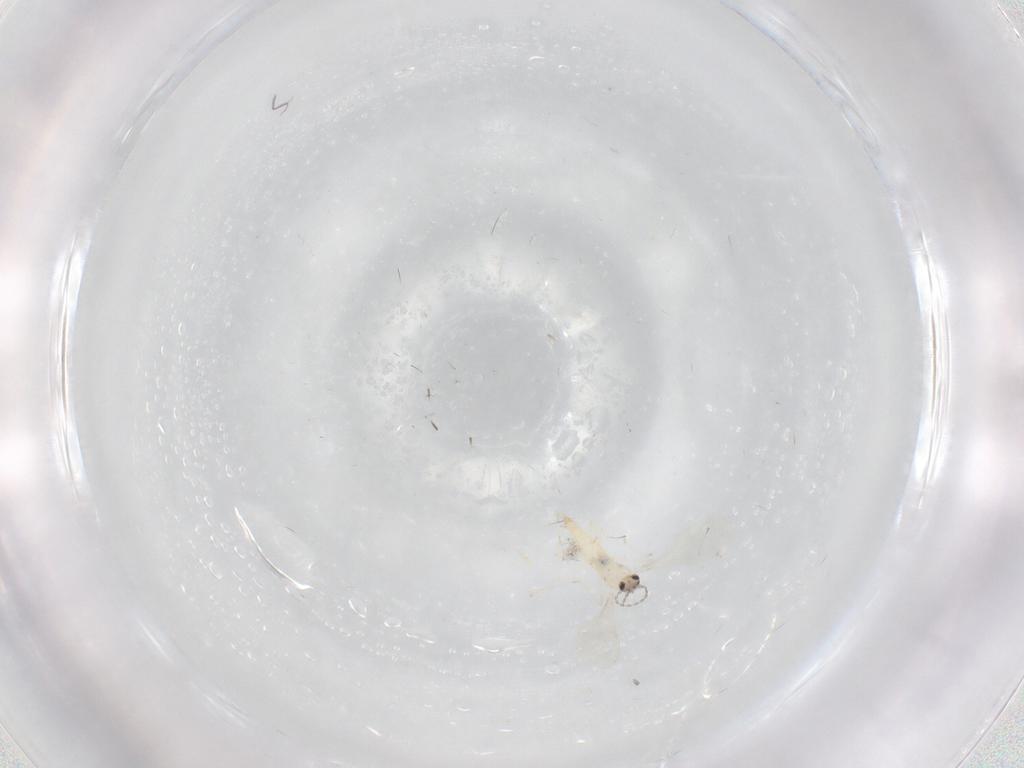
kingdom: Animalia
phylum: Arthropoda
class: Insecta
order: Diptera
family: Cecidomyiidae
